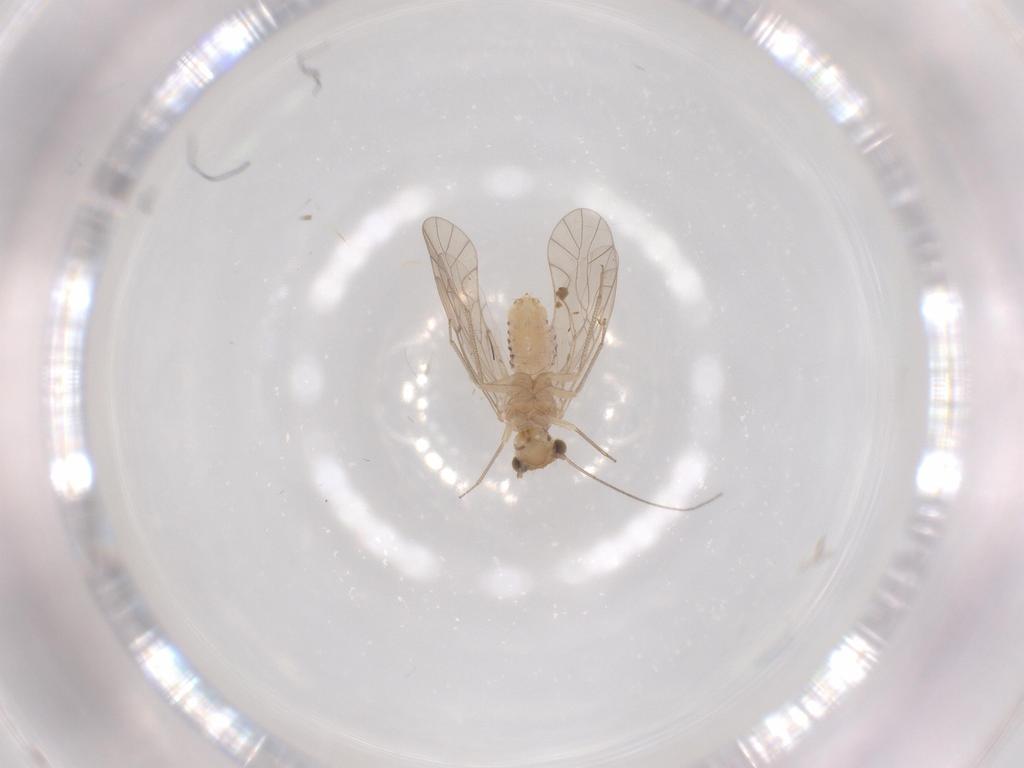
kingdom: Animalia
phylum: Arthropoda
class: Insecta
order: Psocodea
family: Lachesillidae
